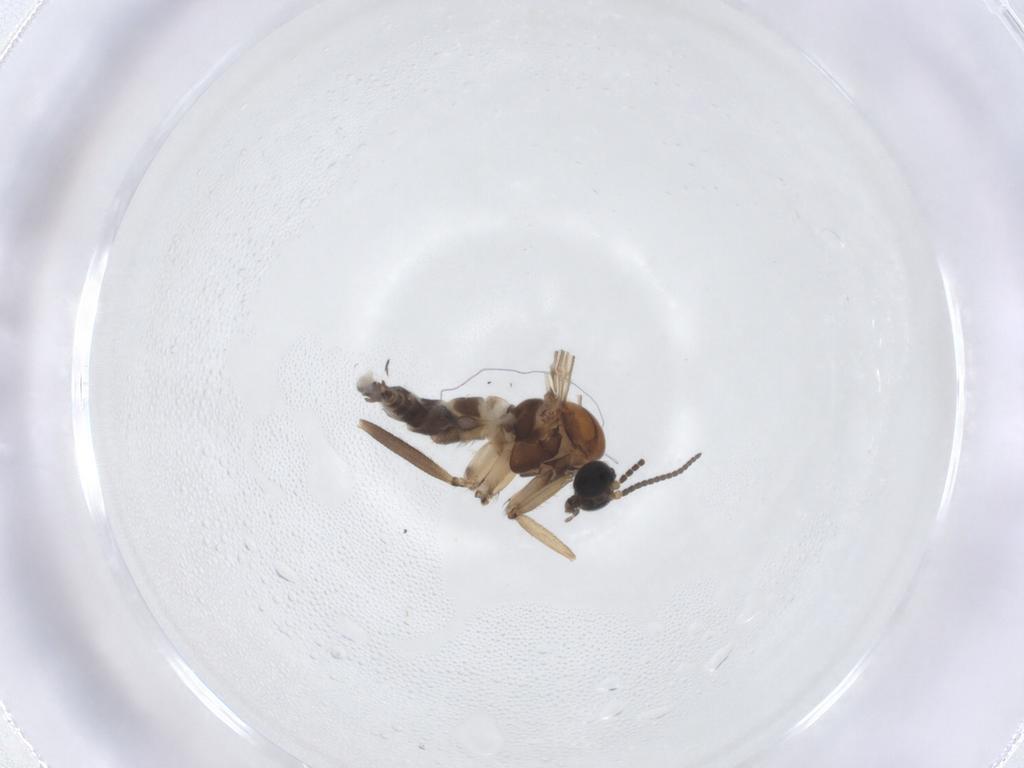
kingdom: Animalia
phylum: Arthropoda
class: Insecta
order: Diptera
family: Sciaridae
